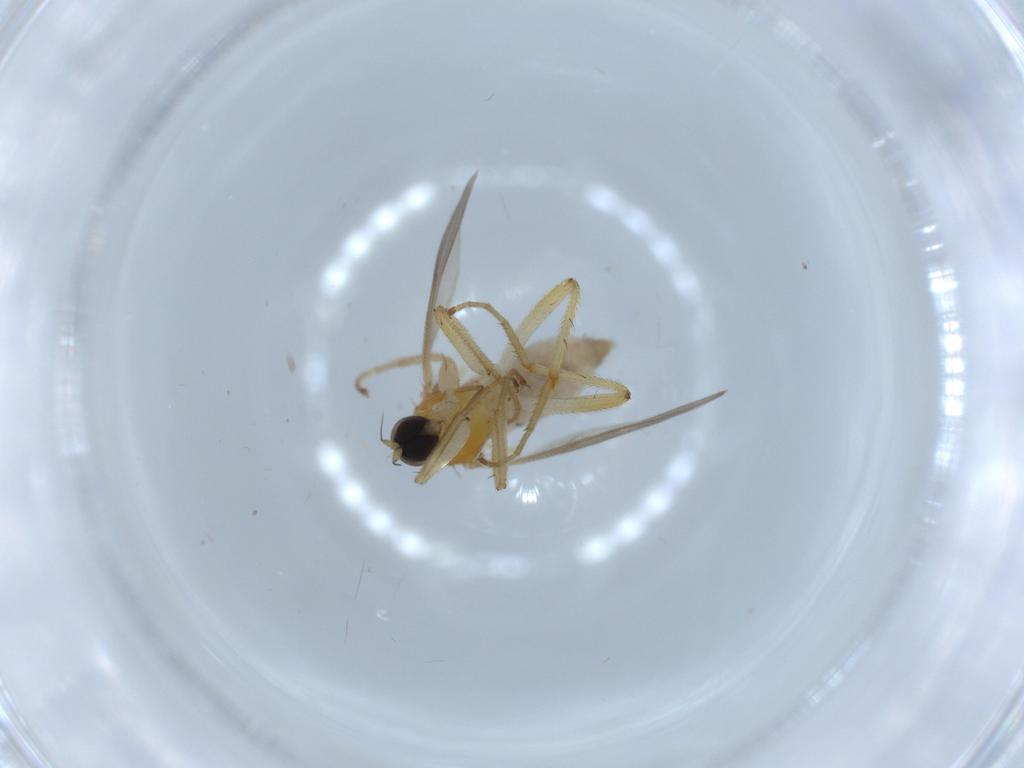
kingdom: Animalia
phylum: Arthropoda
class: Insecta
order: Diptera
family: Hybotidae
